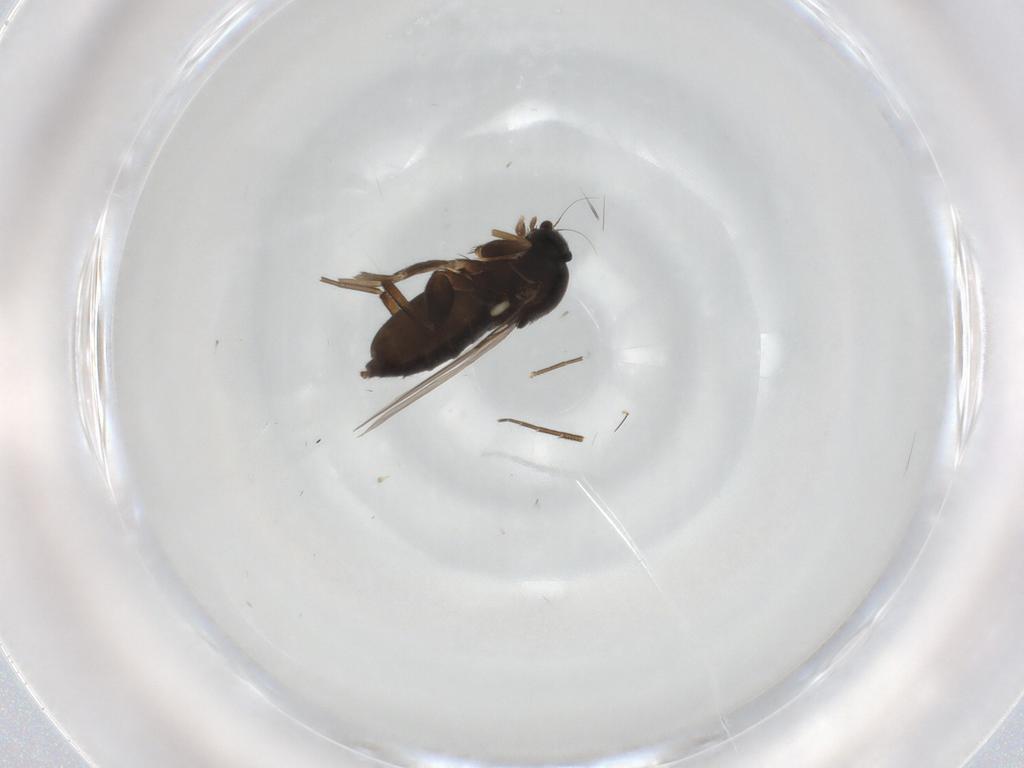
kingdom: Animalia
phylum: Arthropoda
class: Insecta
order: Diptera
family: Phoridae
